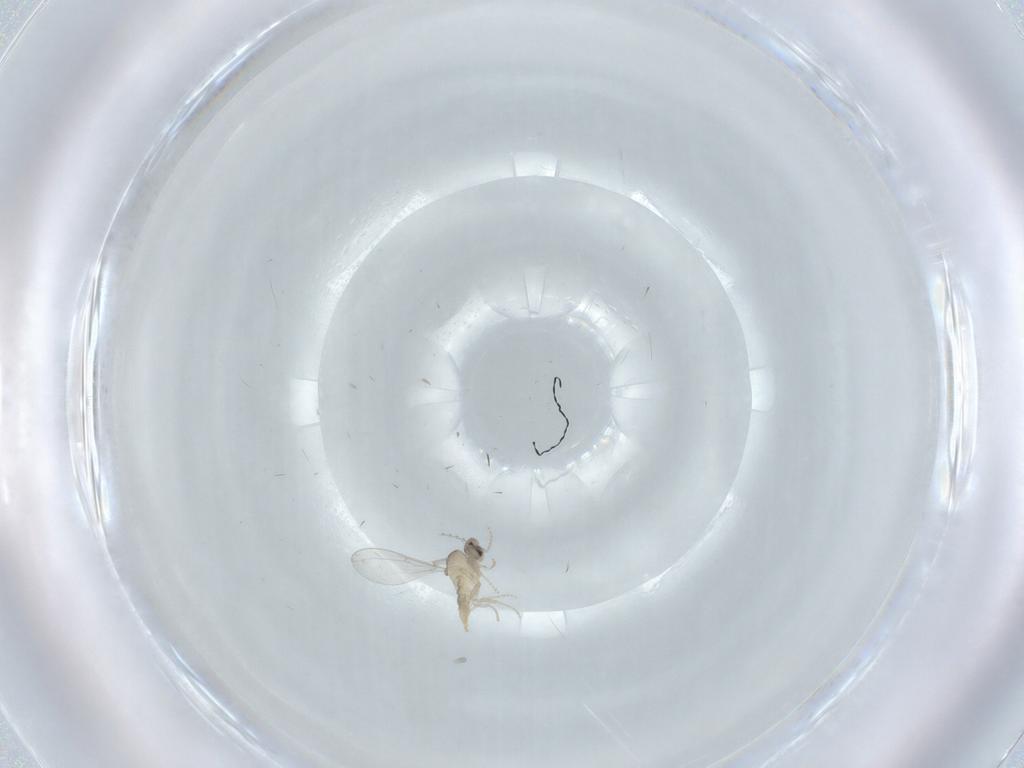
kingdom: Animalia
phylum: Arthropoda
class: Insecta
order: Diptera
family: Cecidomyiidae
